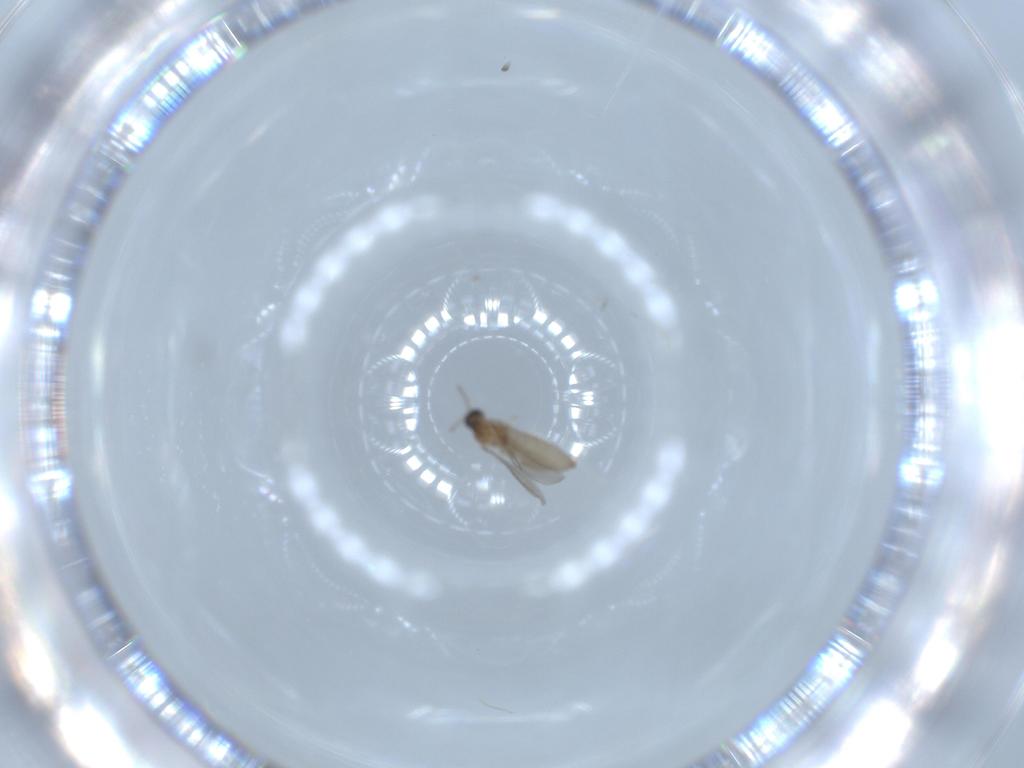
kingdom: Animalia
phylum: Arthropoda
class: Insecta
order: Diptera
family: Cecidomyiidae
